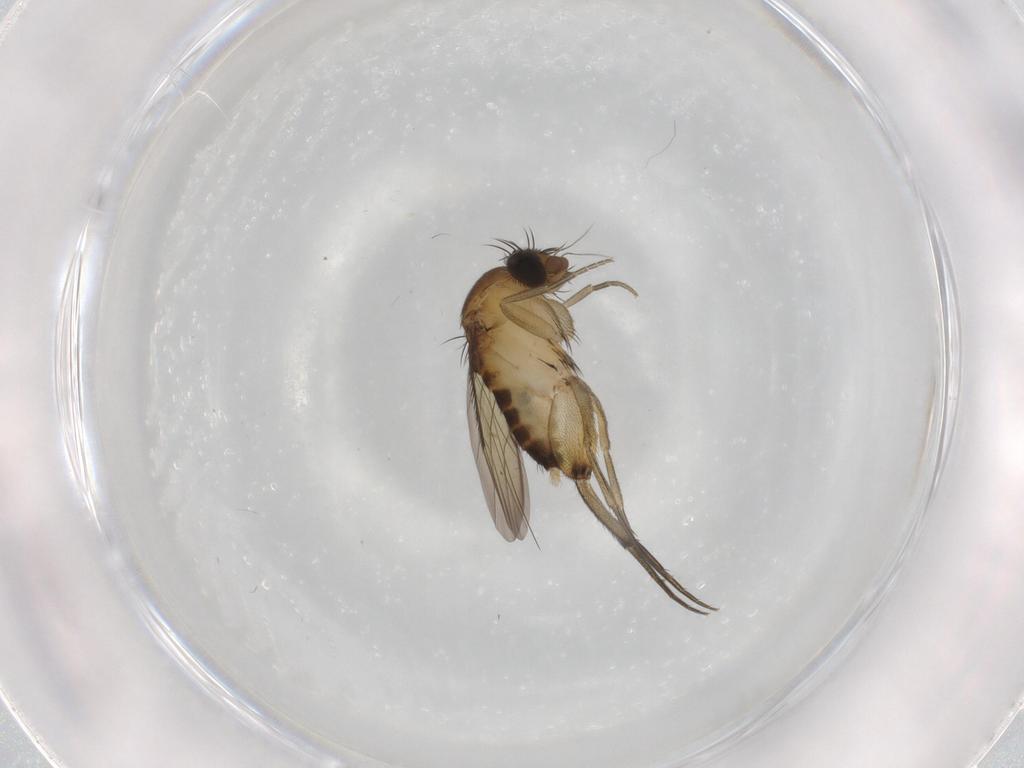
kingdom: Animalia
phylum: Arthropoda
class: Insecta
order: Diptera
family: Phoridae
